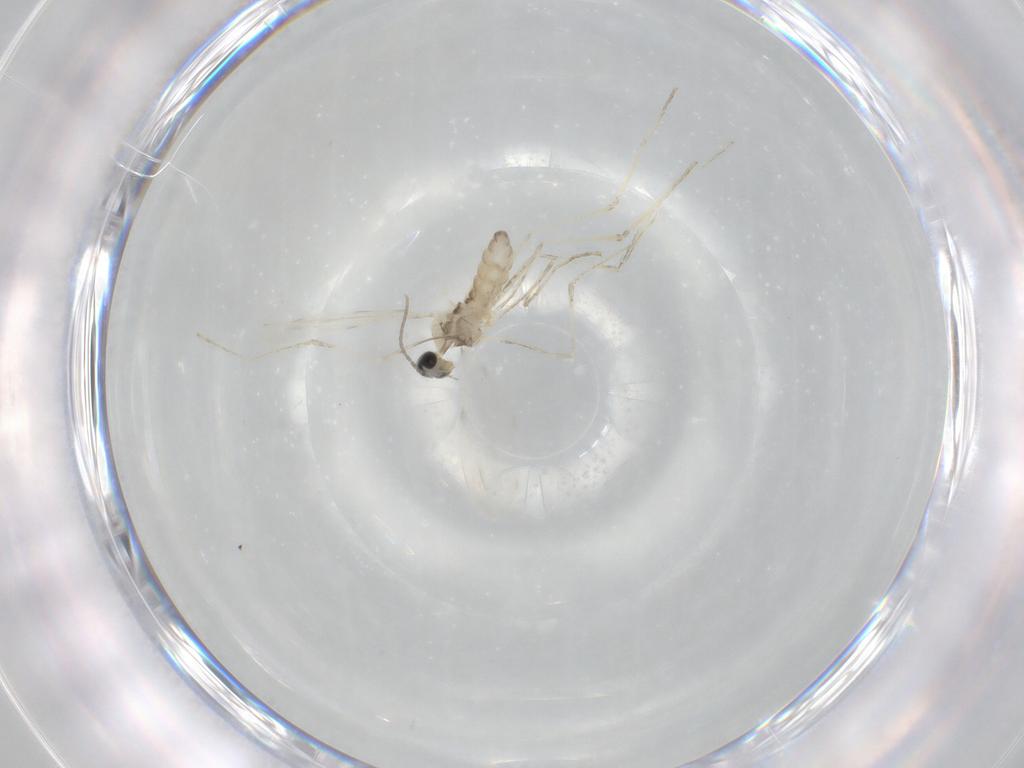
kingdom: Animalia
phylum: Arthropoda
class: Insecta
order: Diptera
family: Cecidomyiidae
